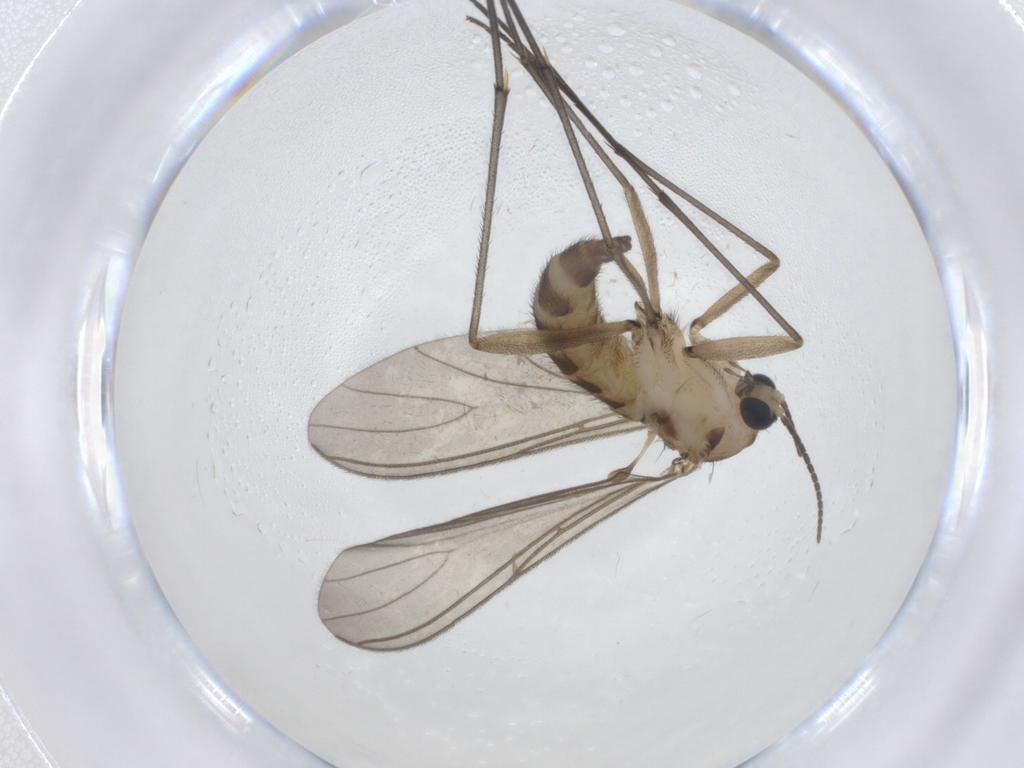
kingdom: Animalia
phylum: Arthropoda
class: Insecta
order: Diptera
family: Sciaridae
